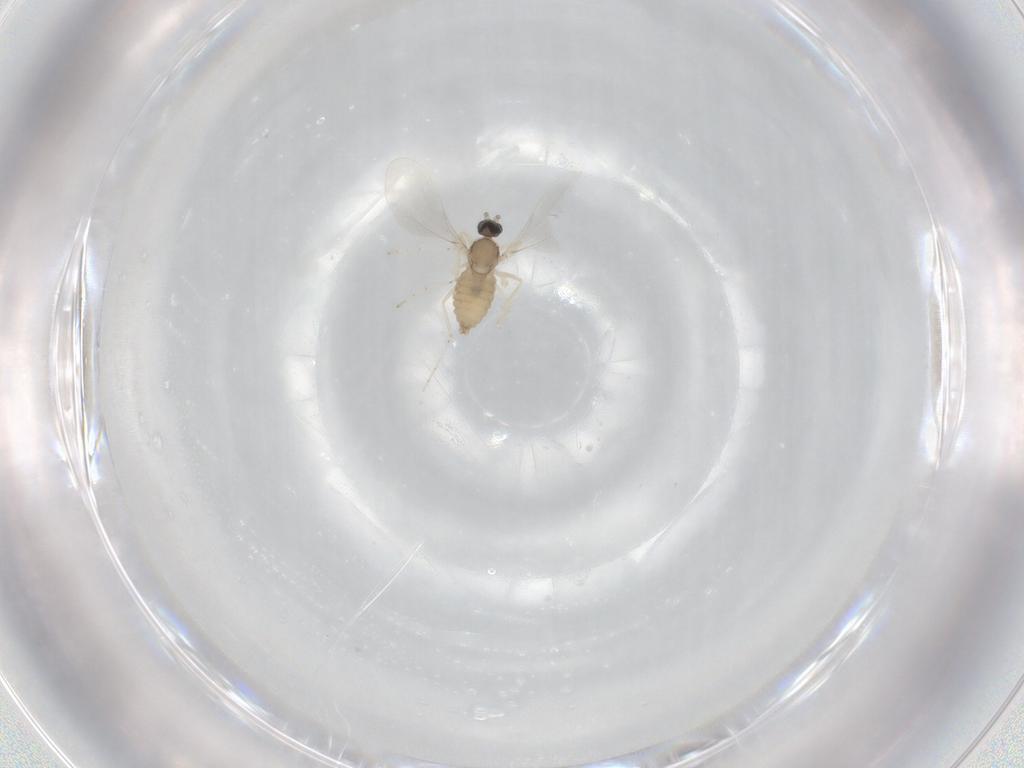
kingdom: Animalia
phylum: Arthropoda
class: Insecta
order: Diptera
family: Cecidomyiidae
